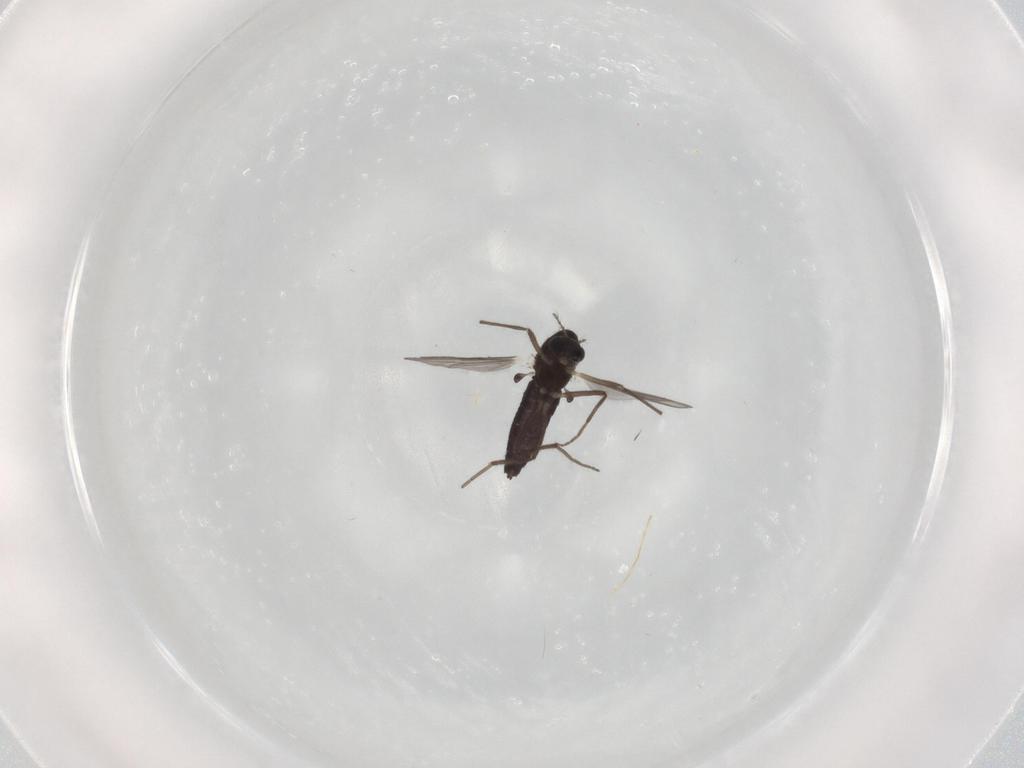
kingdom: Animalia
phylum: Arthropoda
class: Insecta
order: Diptera
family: Chironomidae
